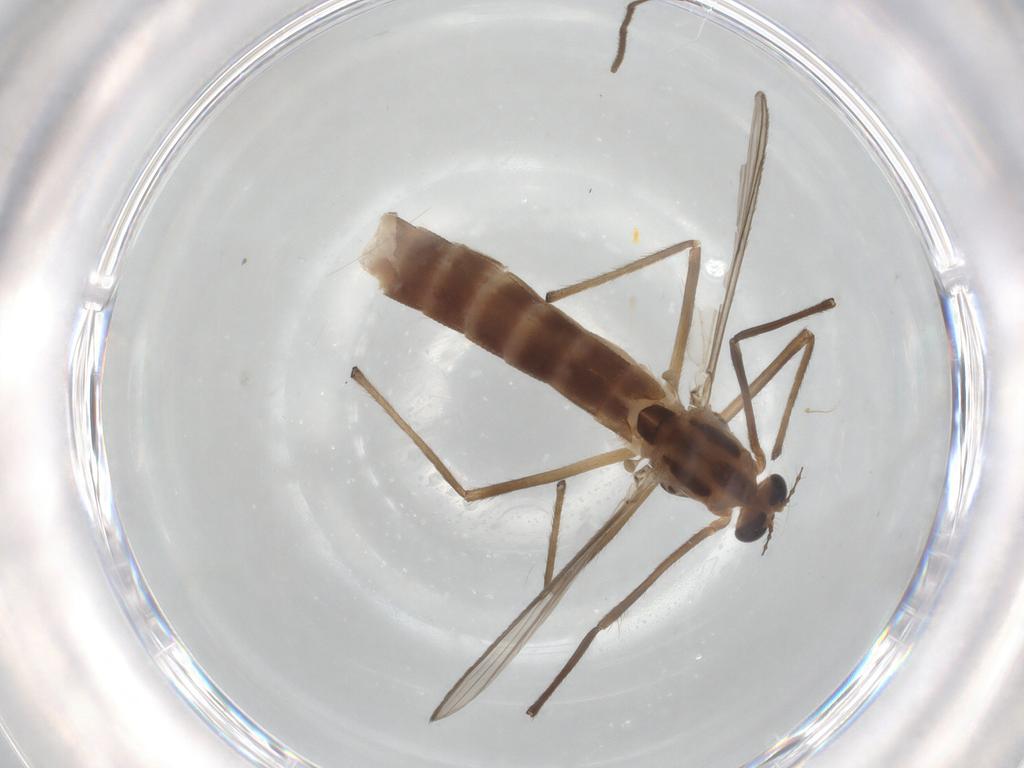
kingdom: Animalia
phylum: Arthropoda
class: Insecta
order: Diptera
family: Chironomidae
